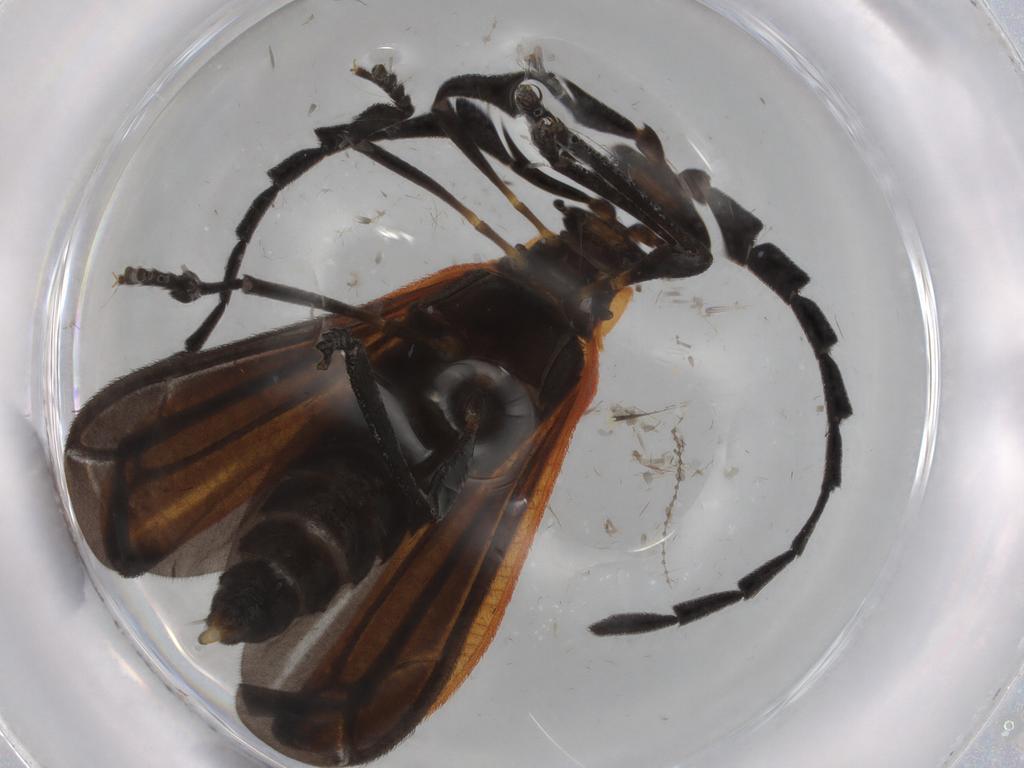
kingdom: Animalia
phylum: Arthropoda
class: Insecta
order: Coleoptera
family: Lycidae
